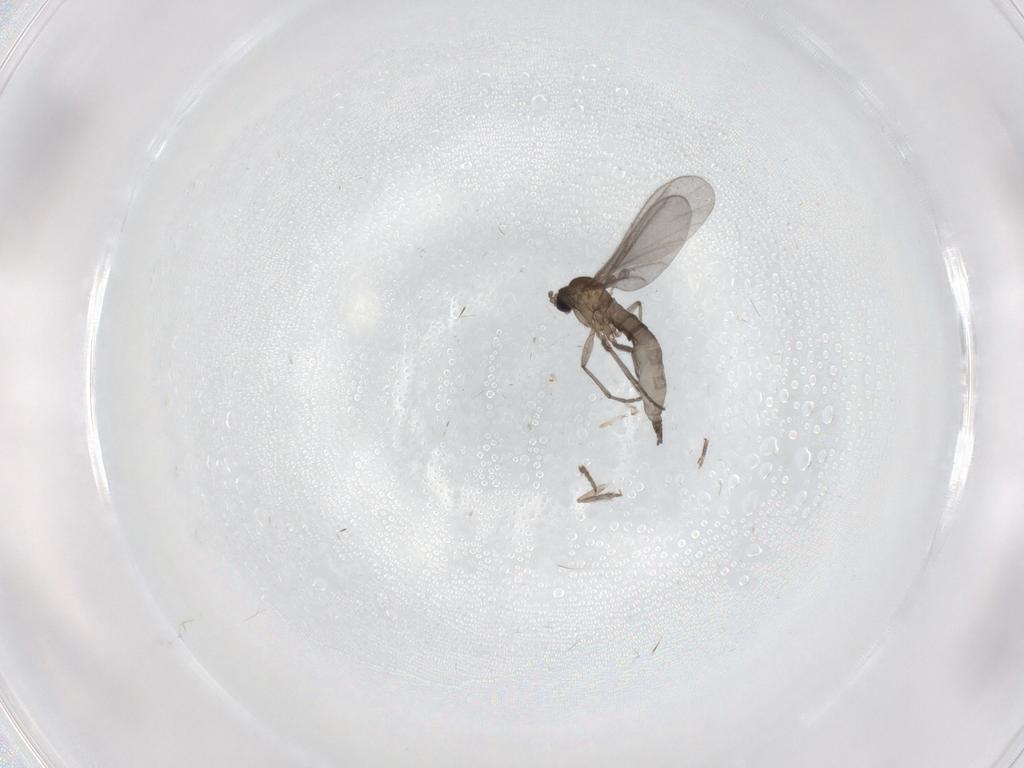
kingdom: Animalia
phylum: Arthropoda
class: Insecta
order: Diptera
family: Sciaridae
